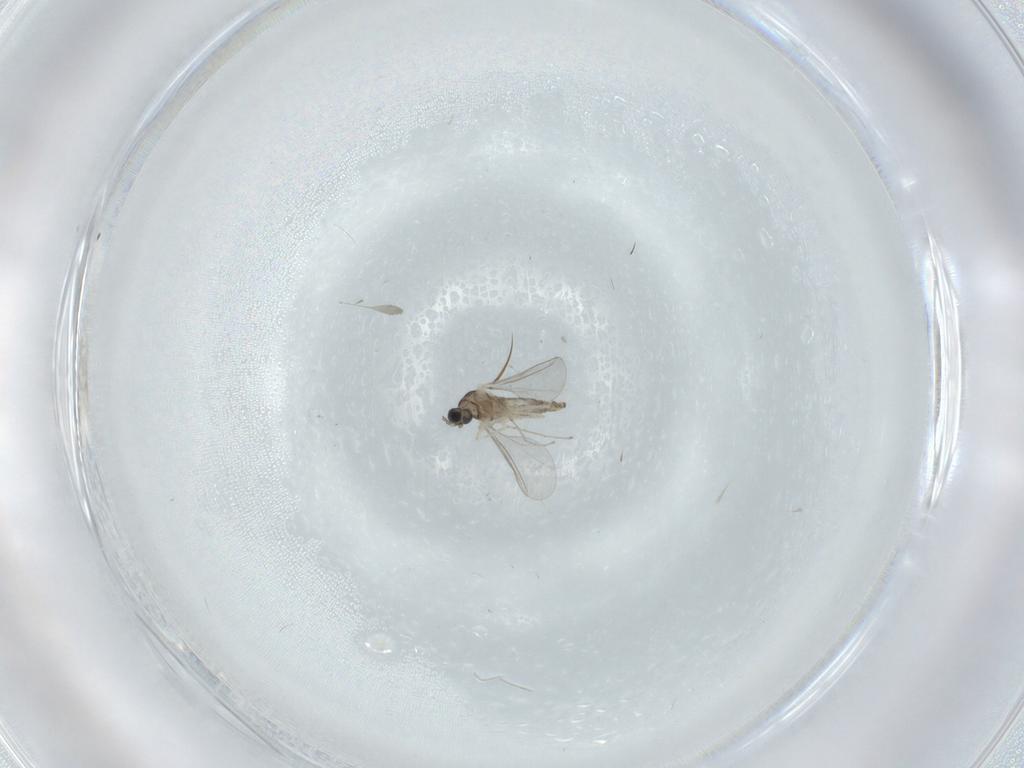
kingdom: Animalia
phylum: Arthropoda
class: Insecta
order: Diptera
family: Cecidomyiidae
